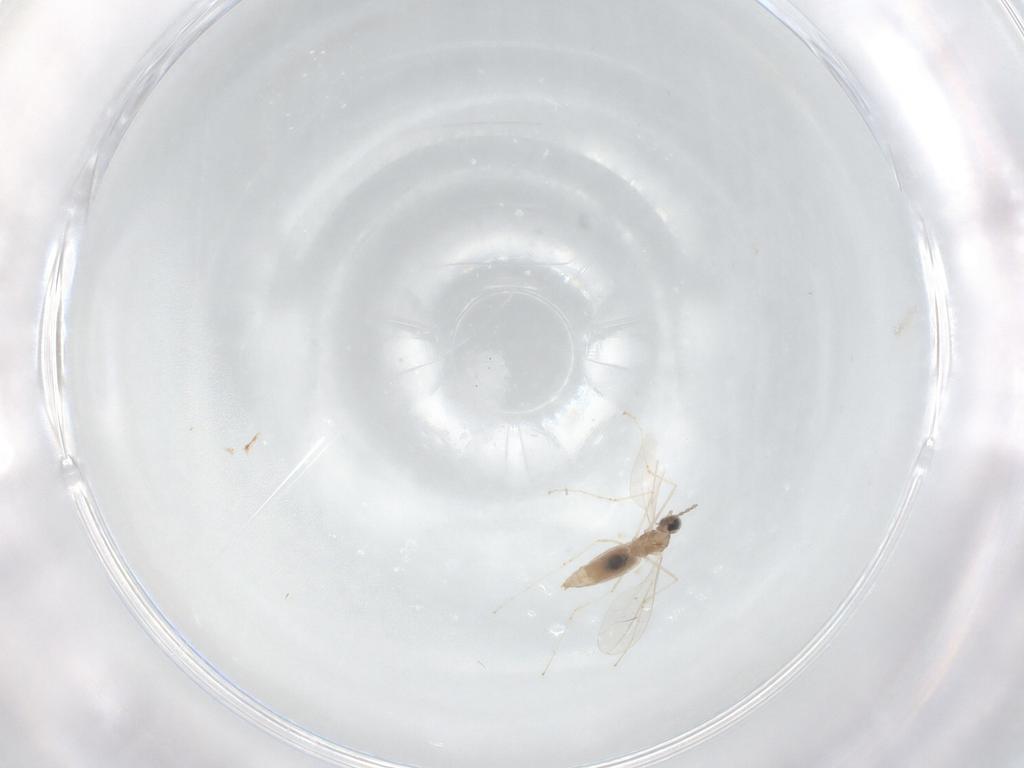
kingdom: Animalia
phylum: Arthropoda
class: Insecta
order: Diptera
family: Cecidomyiidae
